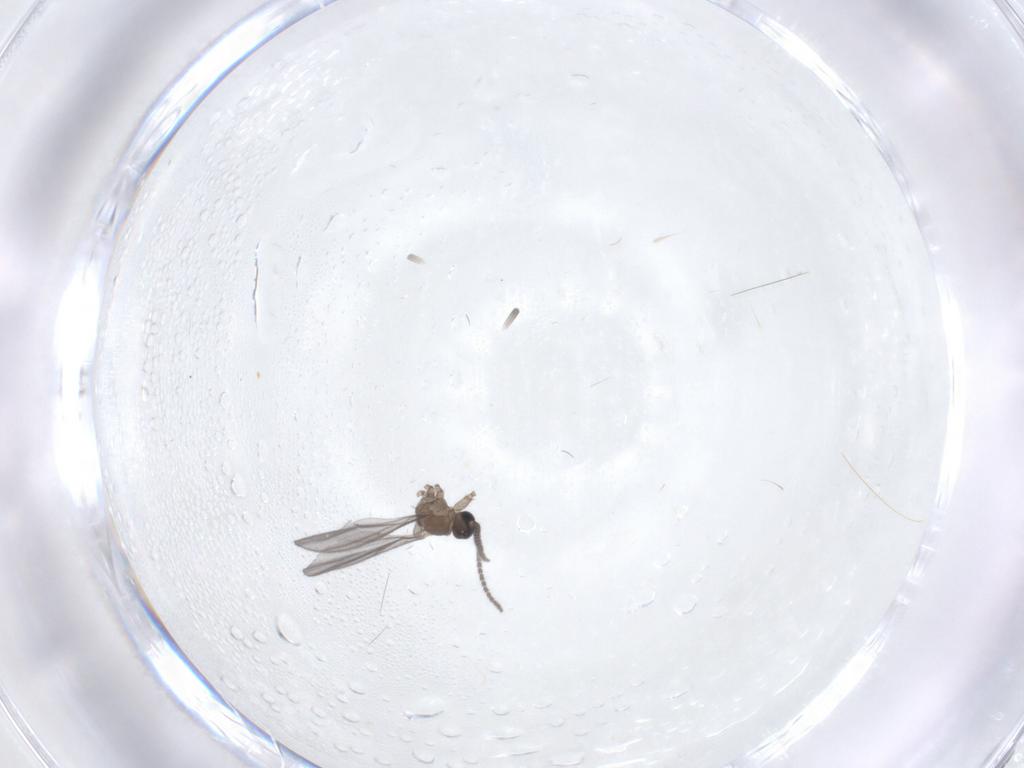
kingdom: Animalia
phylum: Arthropoda
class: Insecta
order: Diptera
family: Sciaridae
